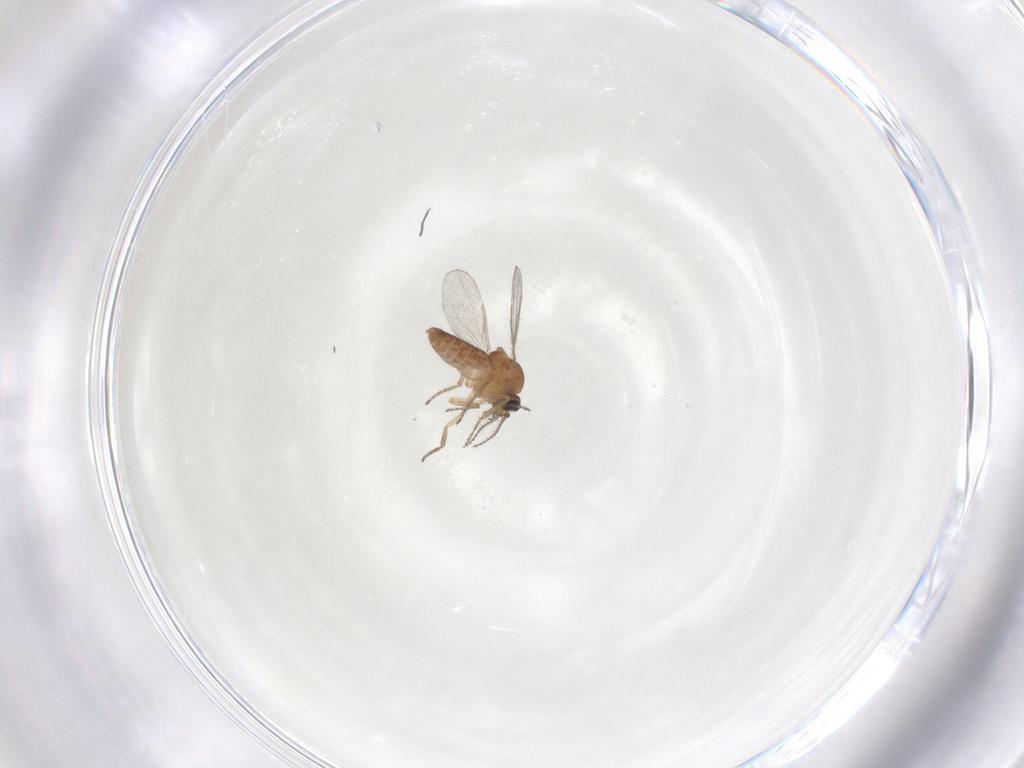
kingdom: Animalia
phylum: Arthropoda
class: Insecta
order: Diptera
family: Ceratopogonidae
